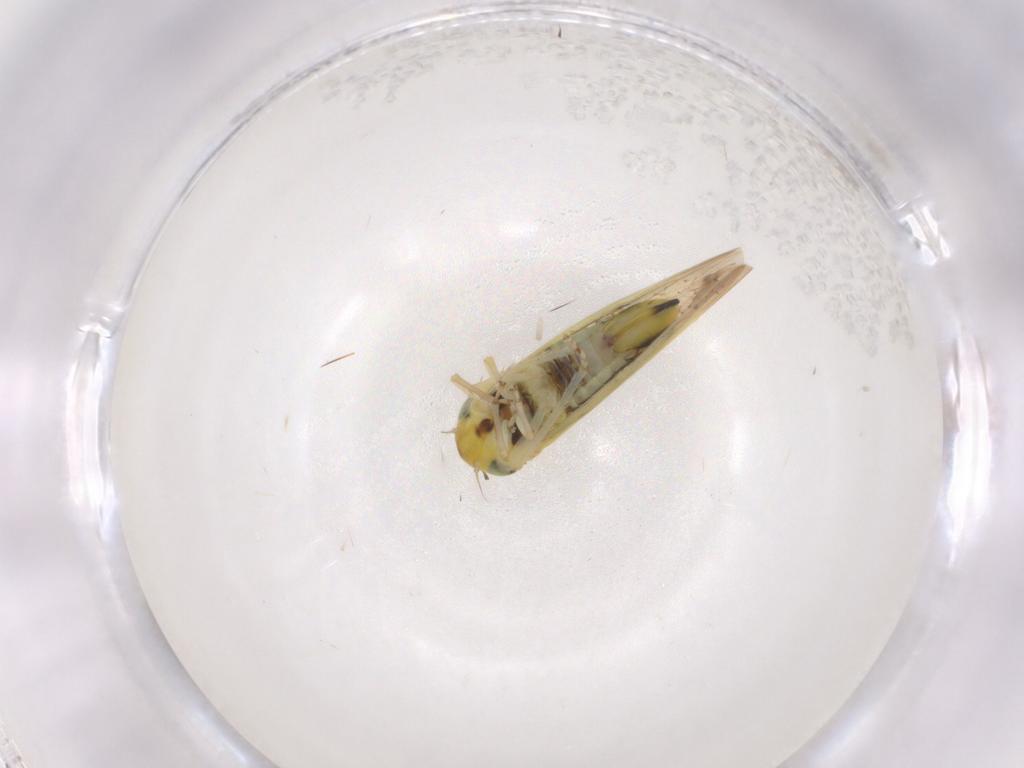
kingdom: Animalia
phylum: Arthropoda
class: Insecta
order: Hemiptera
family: Cicadellidae
